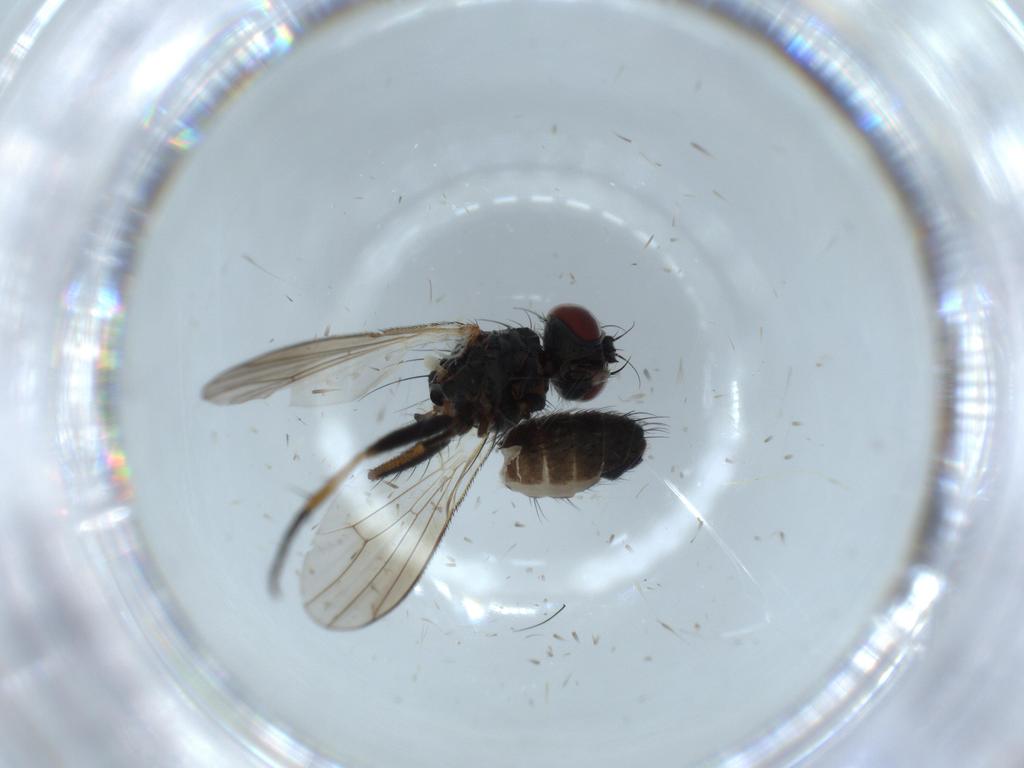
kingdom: Animalia
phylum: Arthropoda
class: Insecta
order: Diptera
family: Muscidae
